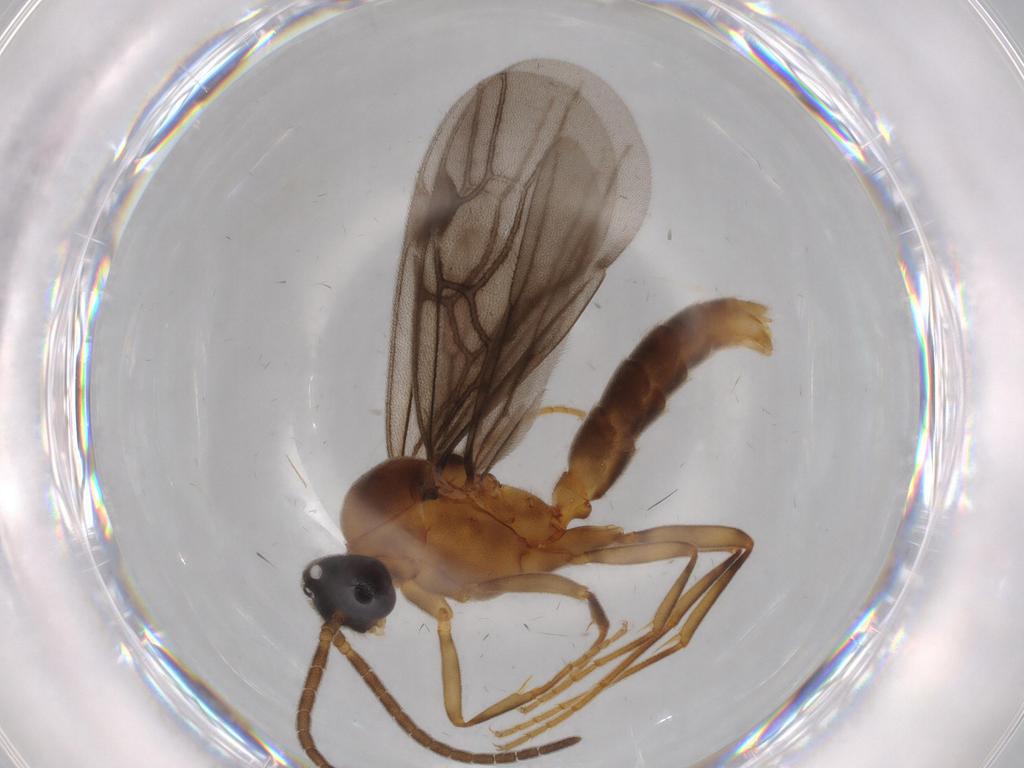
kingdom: Animalia
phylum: Arthropoda
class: Insecta
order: Hymenoptera
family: Formicidae
